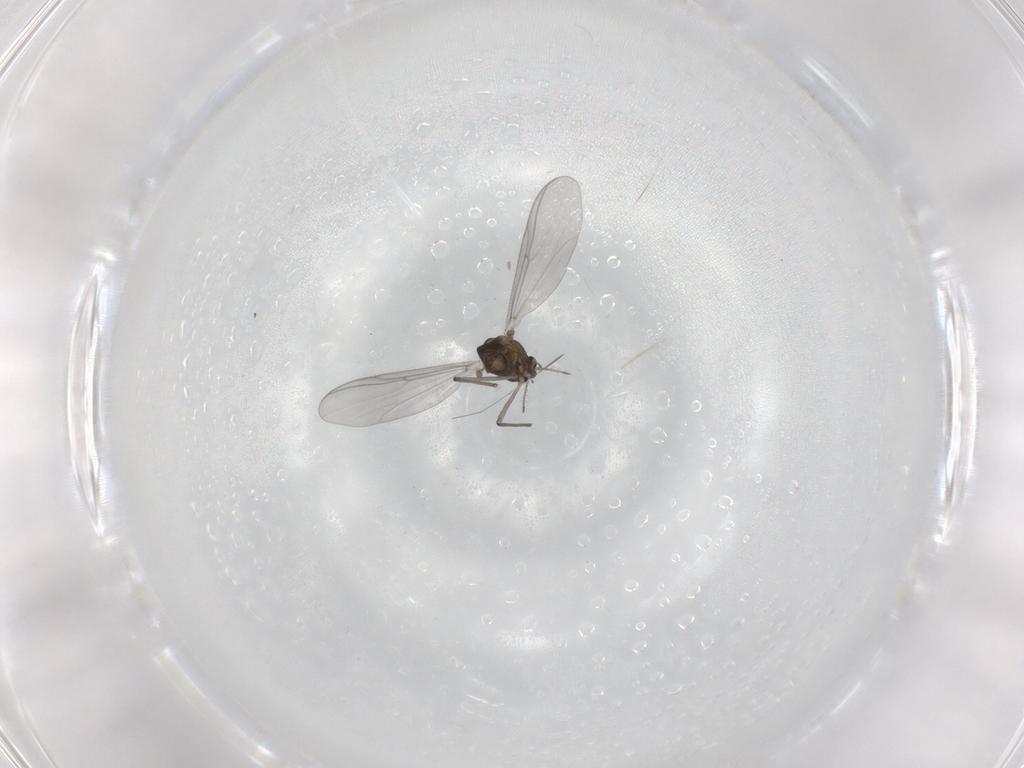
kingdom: Animalia
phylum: Arthropoda
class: Insecta
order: Diptera
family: Chironomidae
